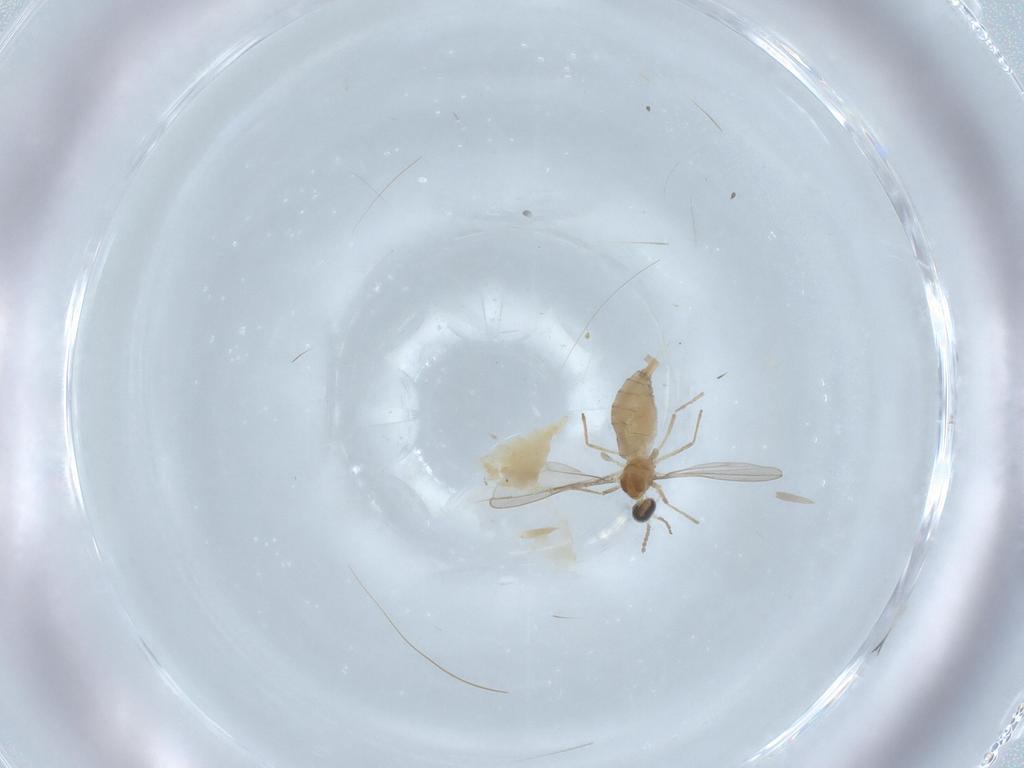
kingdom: Animalia
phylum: Arthropoda
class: Insecta
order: Diptera
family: Cecidomyiidae
